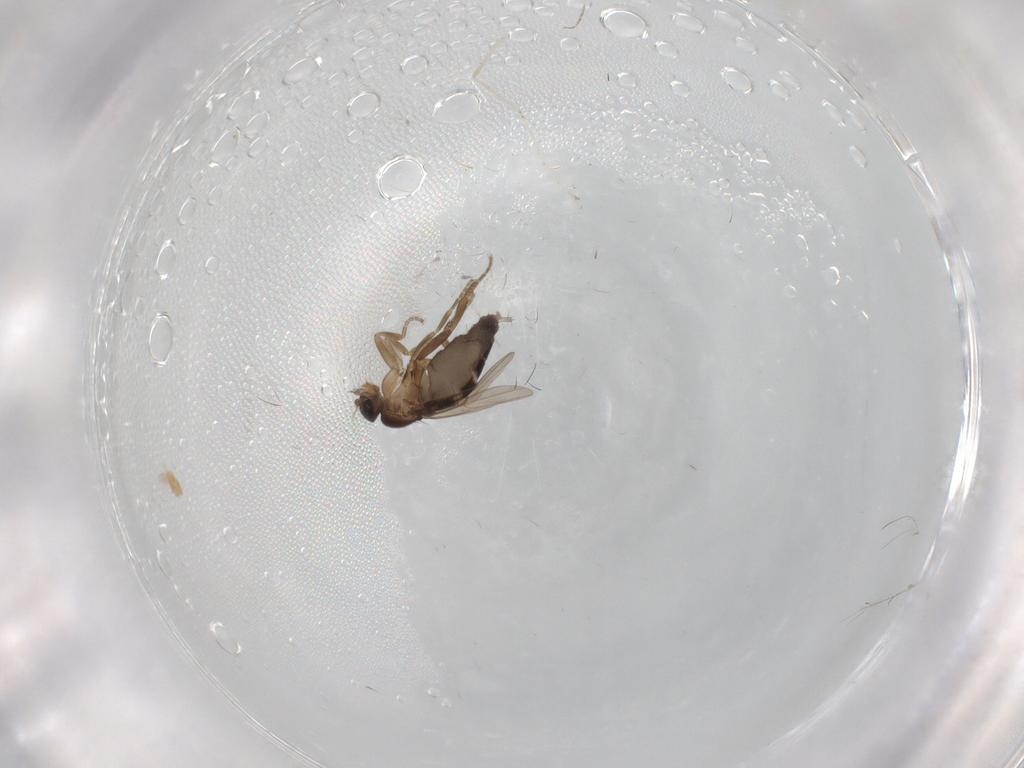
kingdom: Animalia
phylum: Arthropoda
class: Insecta
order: Diptera
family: Cecidomyiidae
